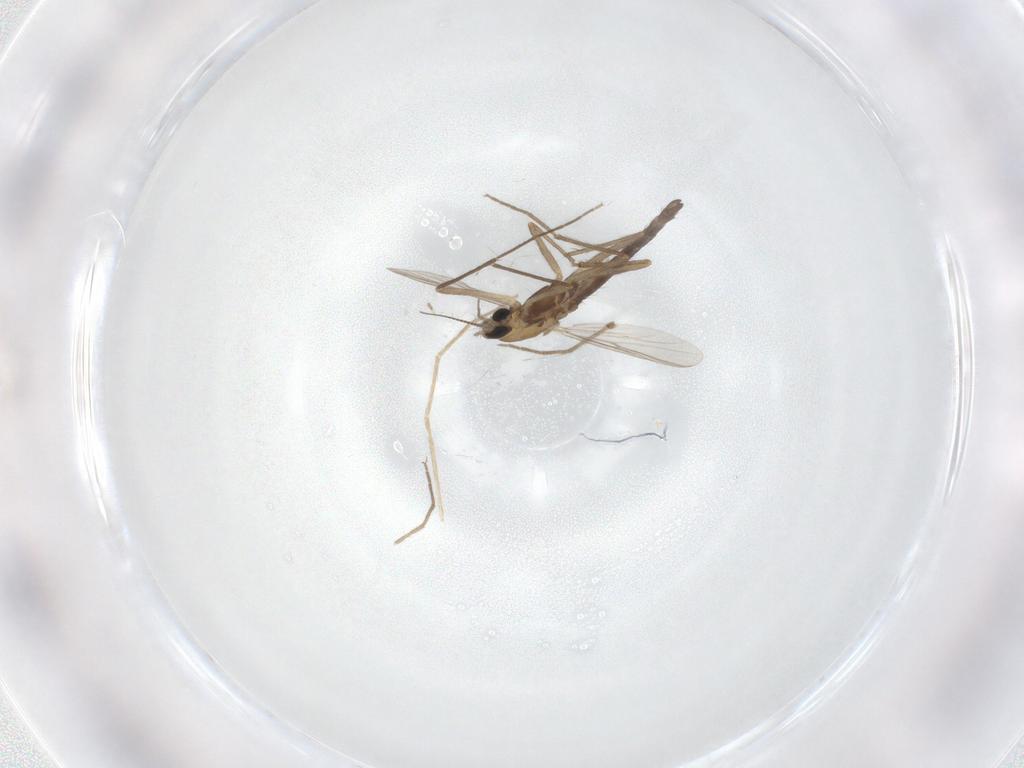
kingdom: Animalia
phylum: Arthropoda
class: Insecta
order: Diptera
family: Chironomidae
